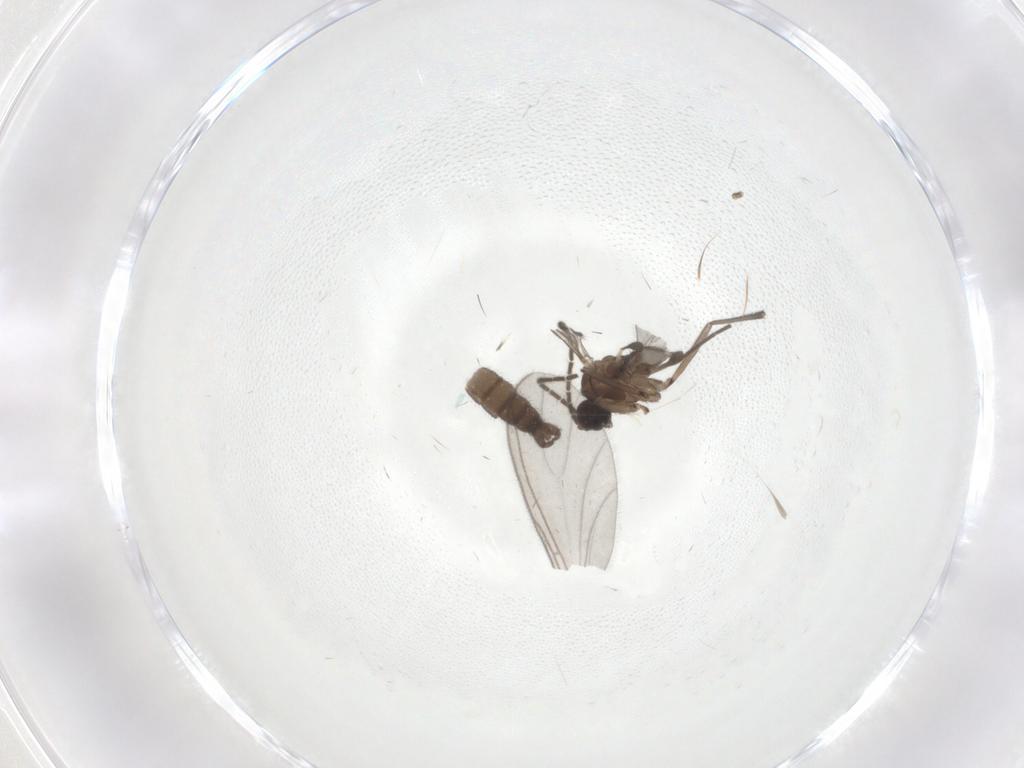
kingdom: Animalia
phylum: Arthropoda
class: Insecta
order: Diptera
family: Sciaridae
